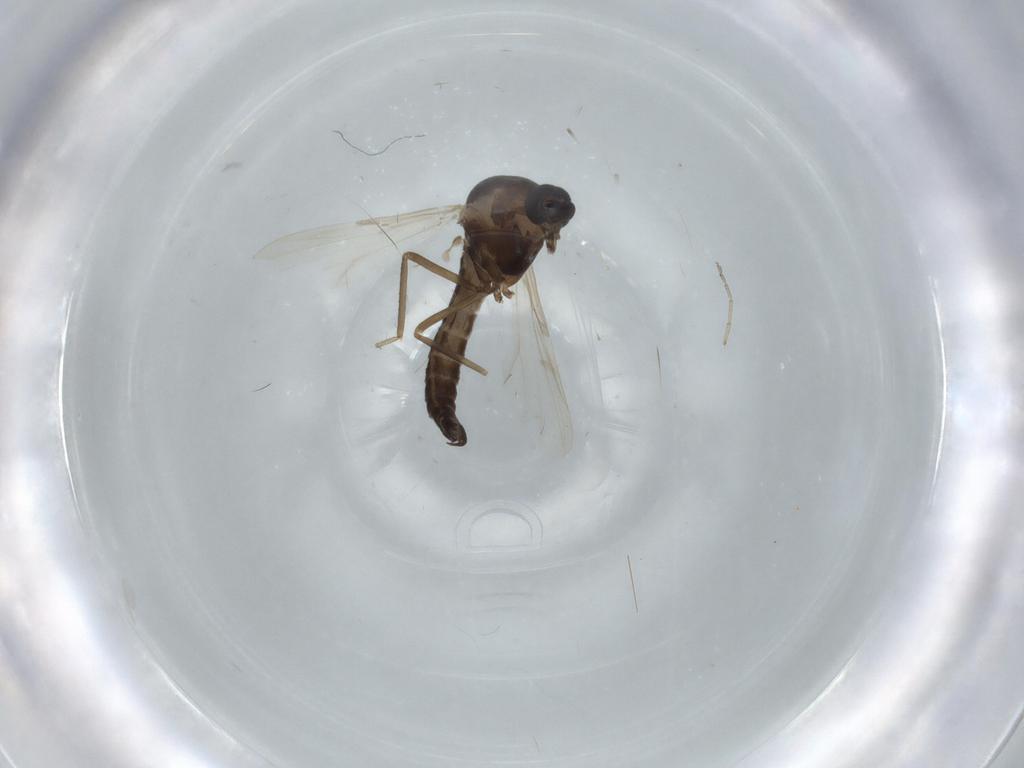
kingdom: Animalia
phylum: Arthropoda
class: Insecta
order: Diptera
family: Ceratopogonidae
